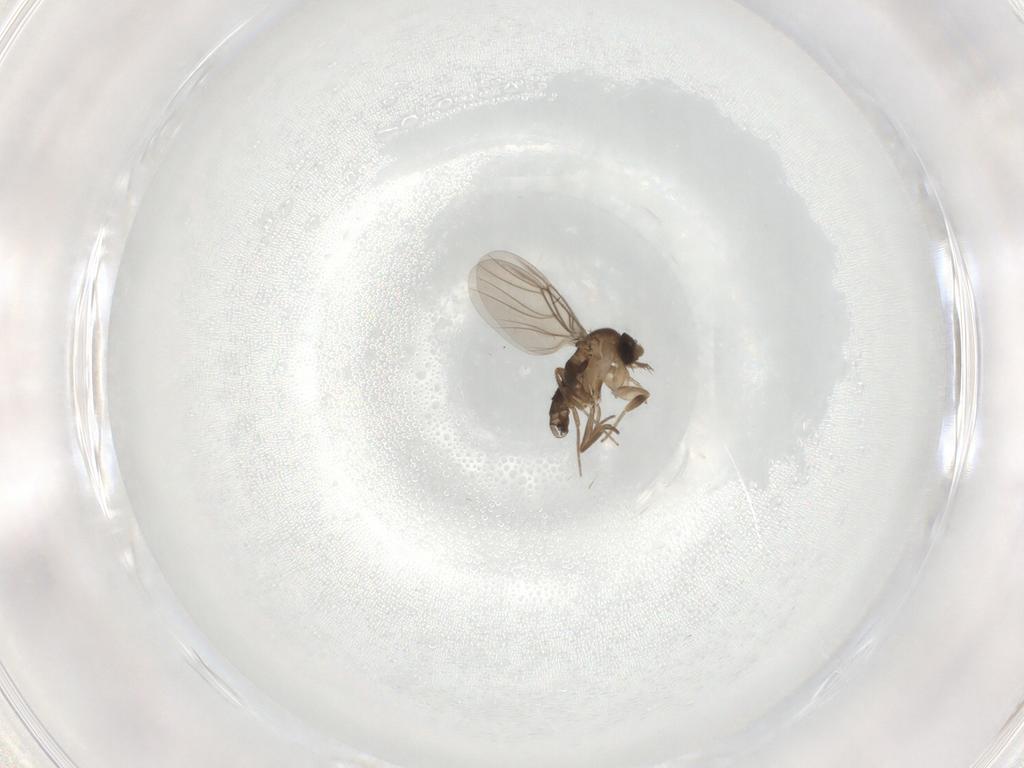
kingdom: Animalia
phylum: Arthropoda
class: Insecta
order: Diptera
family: Phoridae
